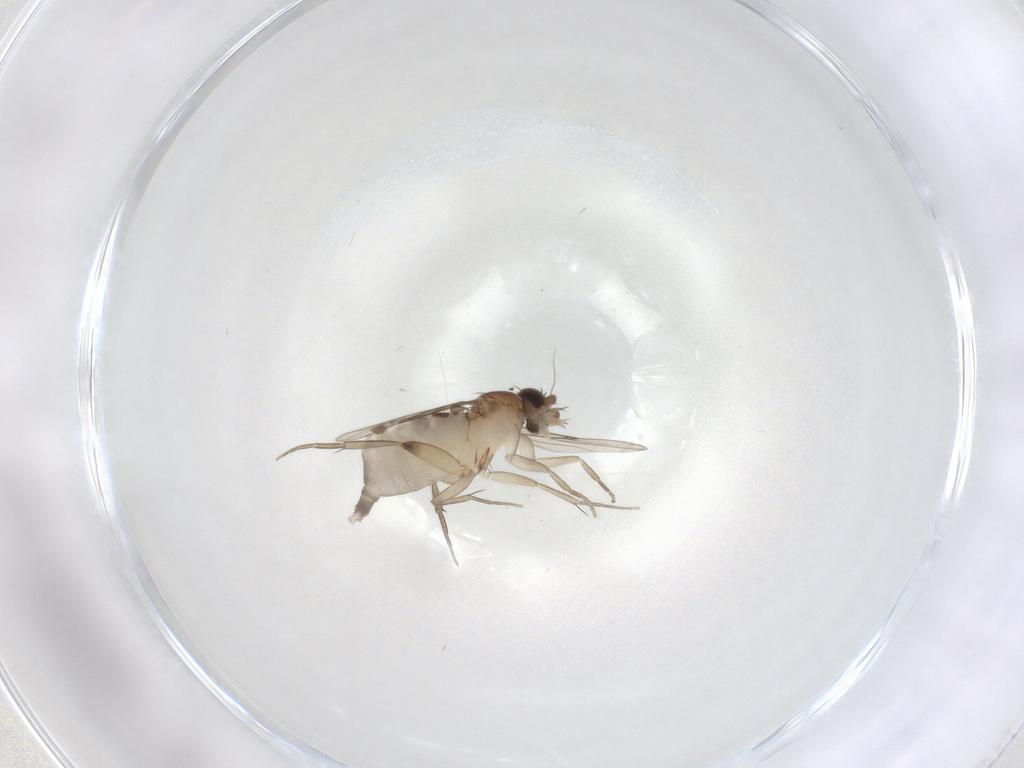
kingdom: Animalia
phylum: Arthropoda
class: Insecta
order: Diptera
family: Phoridae
